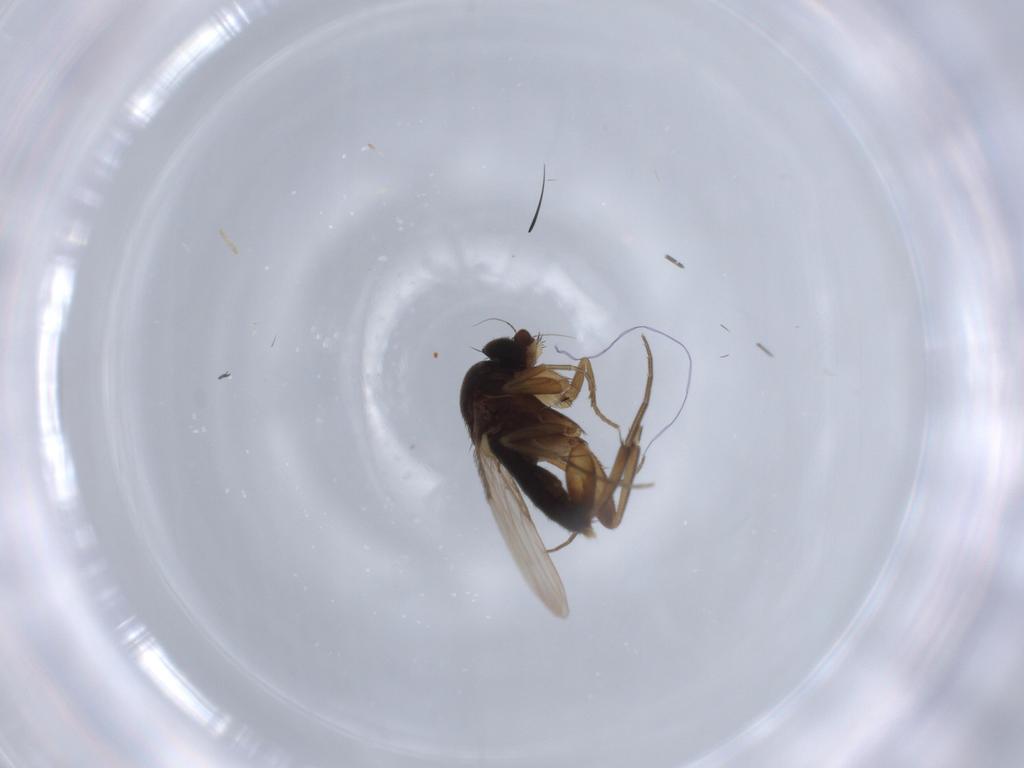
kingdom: Animalia
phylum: Arthropoda
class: Insecta
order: Diptera
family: Phoridae
